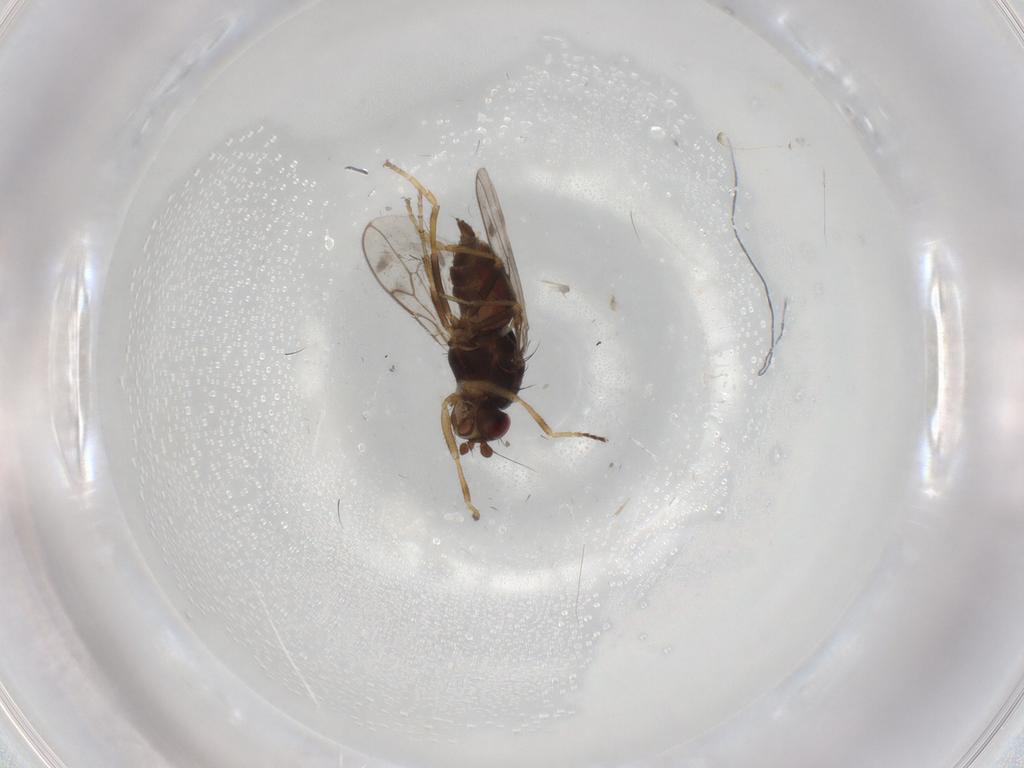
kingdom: Animalia
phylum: Arthropoda
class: Insecta
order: Diptera
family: Sphaeroceridae
